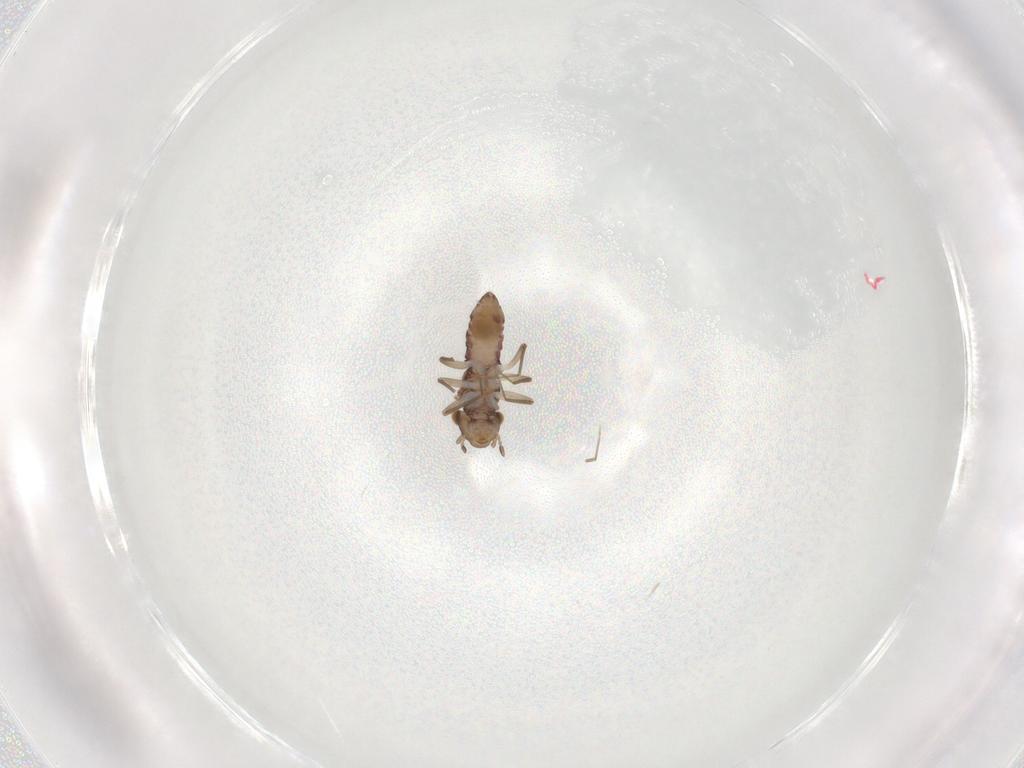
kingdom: Animalia
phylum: Arthropoda
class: Insecta
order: Psocodea
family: Lepidopsocidae
